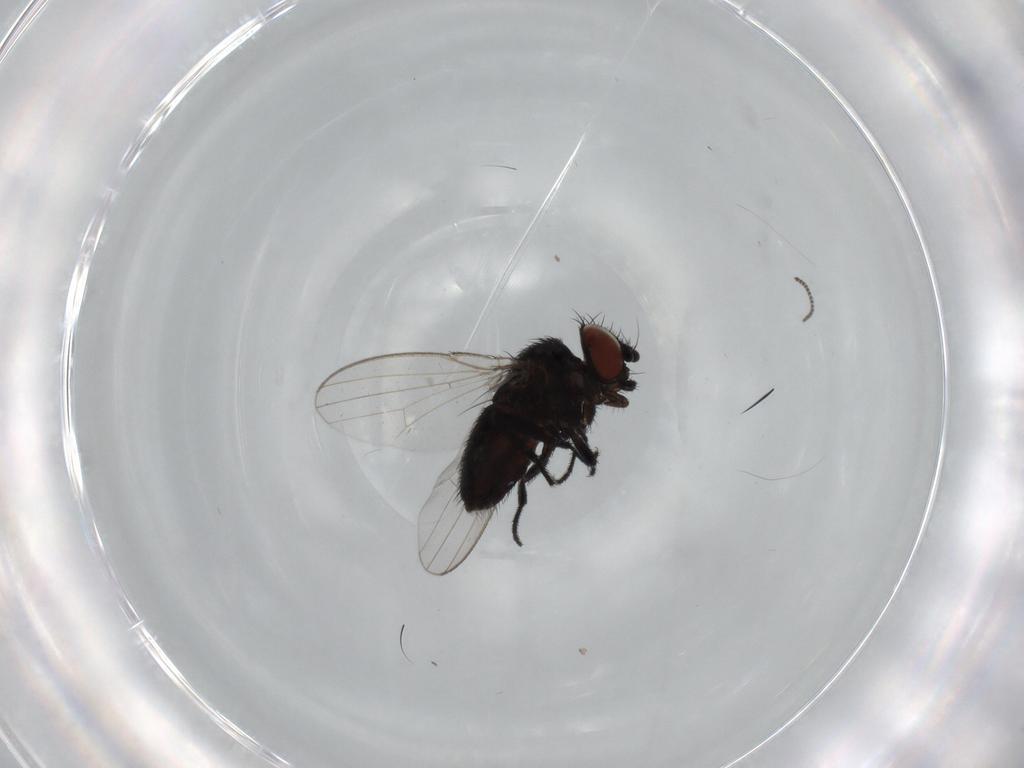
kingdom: Animalia
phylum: Arthropoda
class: Insecta
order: Diptera
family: Sciaridae
